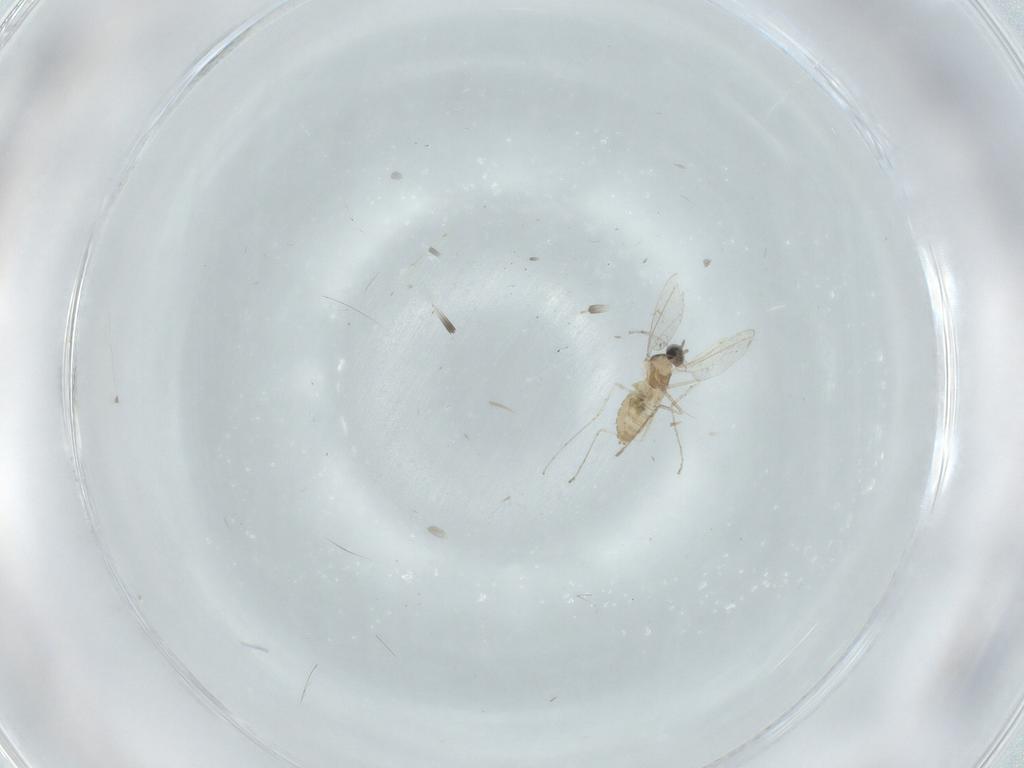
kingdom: Animalia
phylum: Arthropoda
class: Insecta
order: Diptera
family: Cecidomyiidae
